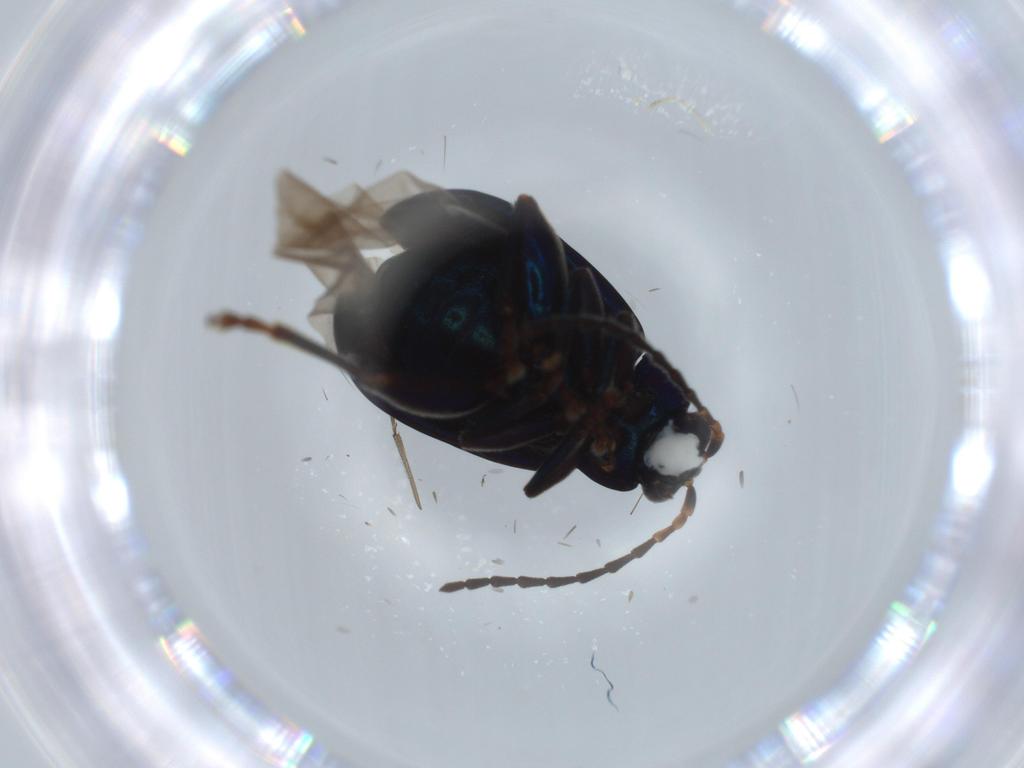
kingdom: Animalia
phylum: Arthropoda
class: Insecta
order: Coleoptera
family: Chrysomelidae
